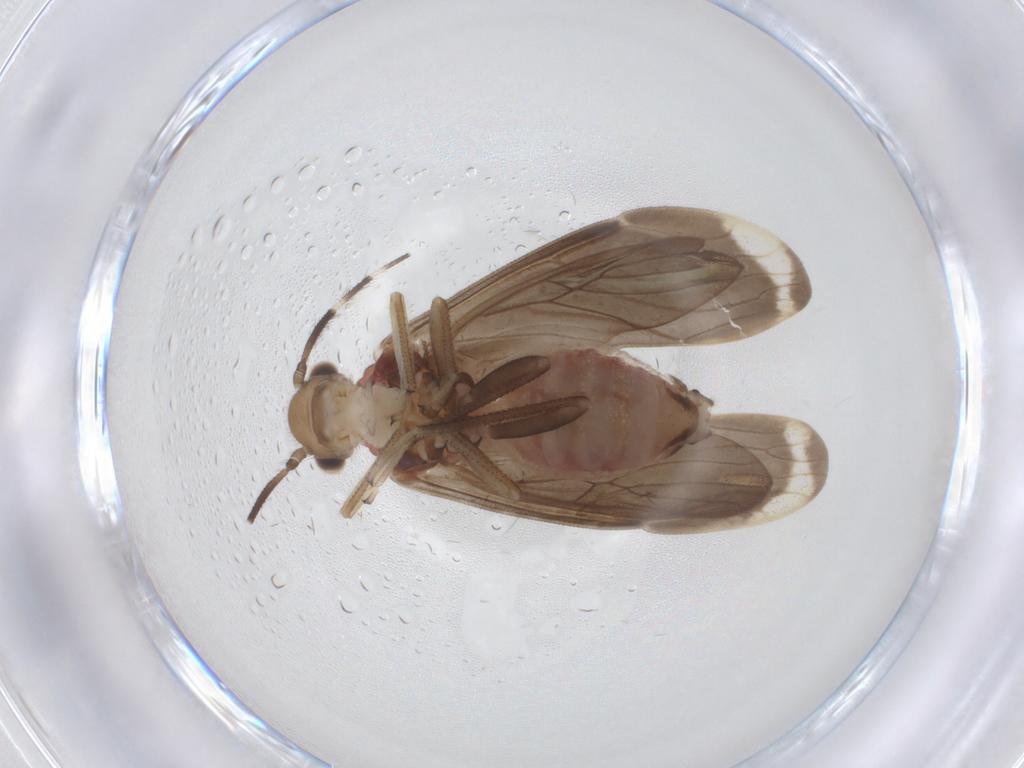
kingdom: Animalia
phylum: Arthropoda
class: Insecta
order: Psocodea
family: Amphipsocidae
